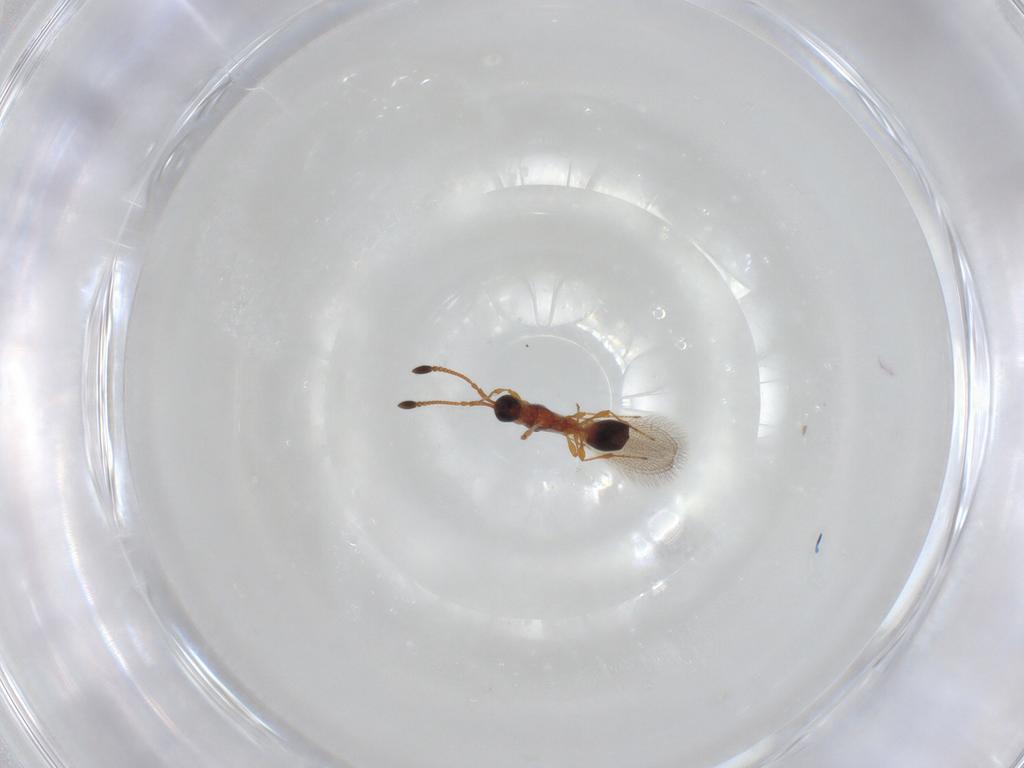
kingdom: Animalia
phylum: Arthropoda
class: Insecta
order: Hymenoptera
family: Diapriidae
